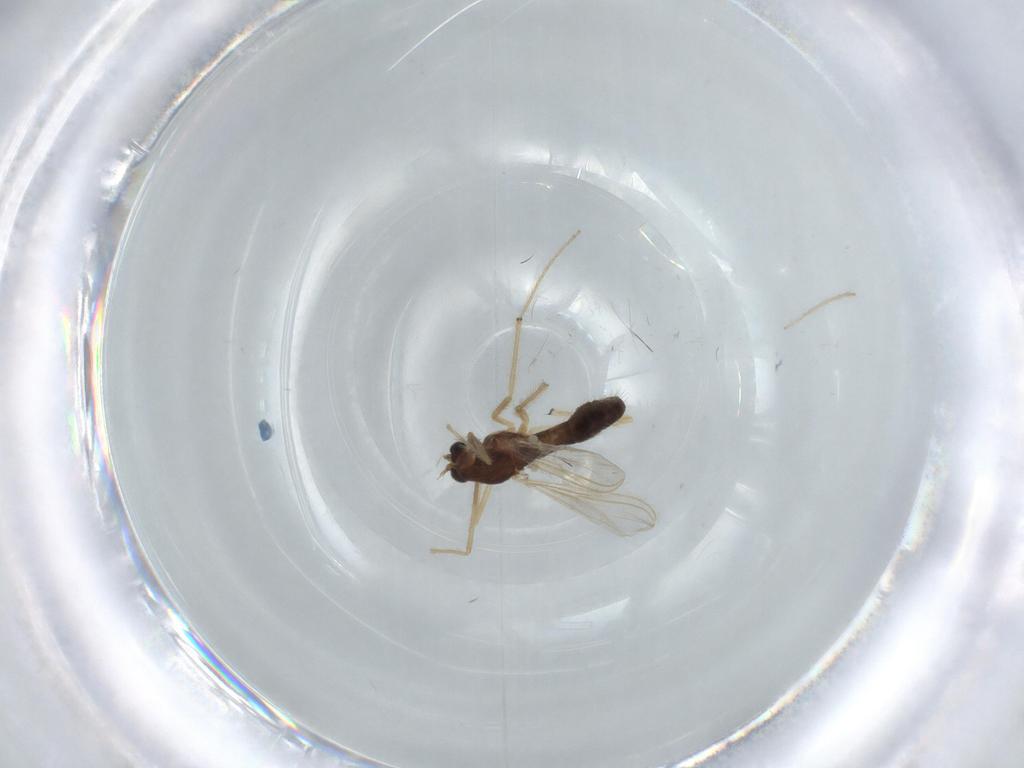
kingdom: Animalia
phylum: Arthropoda
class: Insecta
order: Diptera
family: Chironomidae
